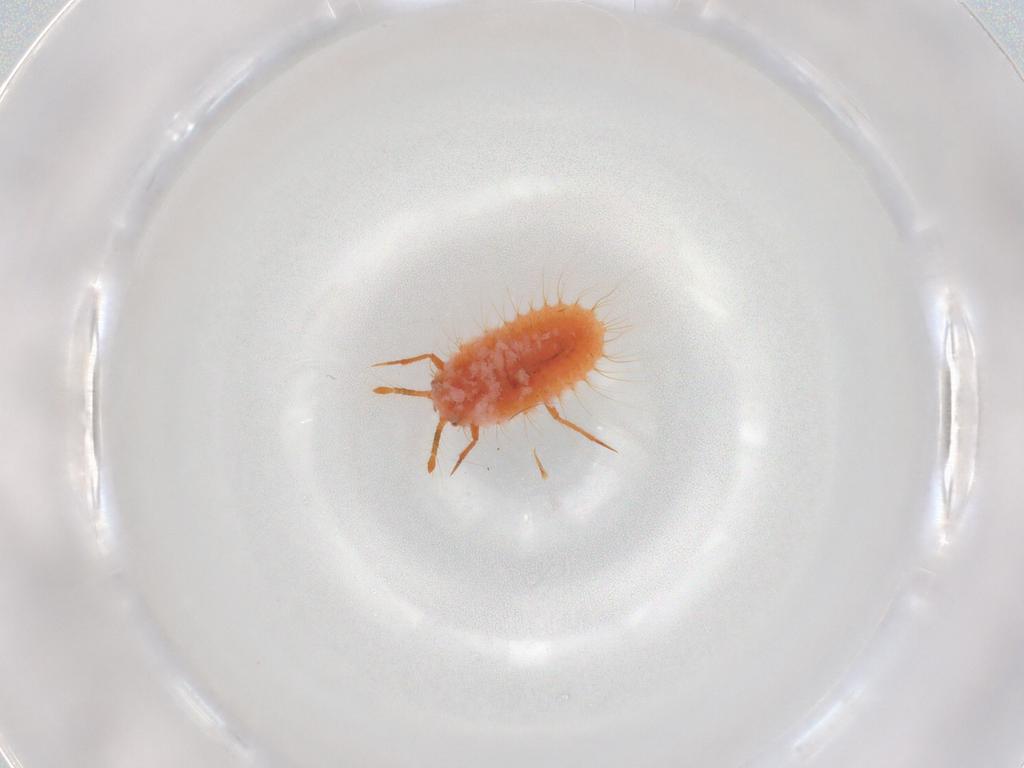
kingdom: Animalia
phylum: Arthropoda
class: Insecta
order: Hemiptera
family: Coccoidea_incertae_sedis
